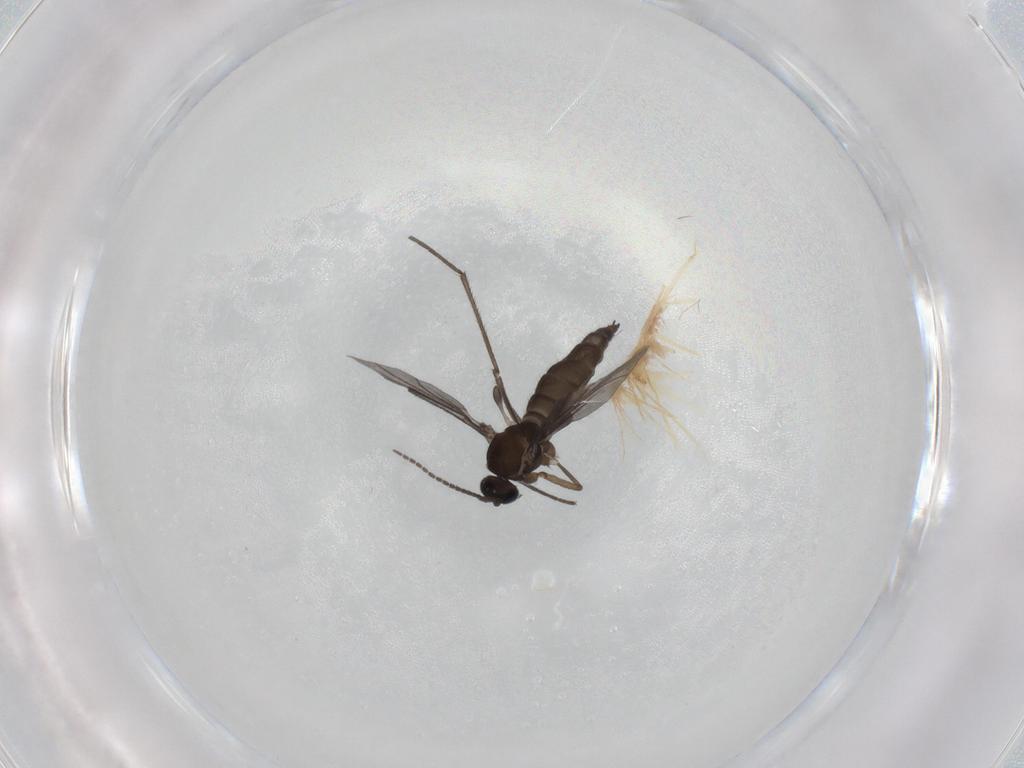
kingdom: Animalia
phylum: Arthropoda
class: Insecta
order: Diptera
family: Sciaridae
